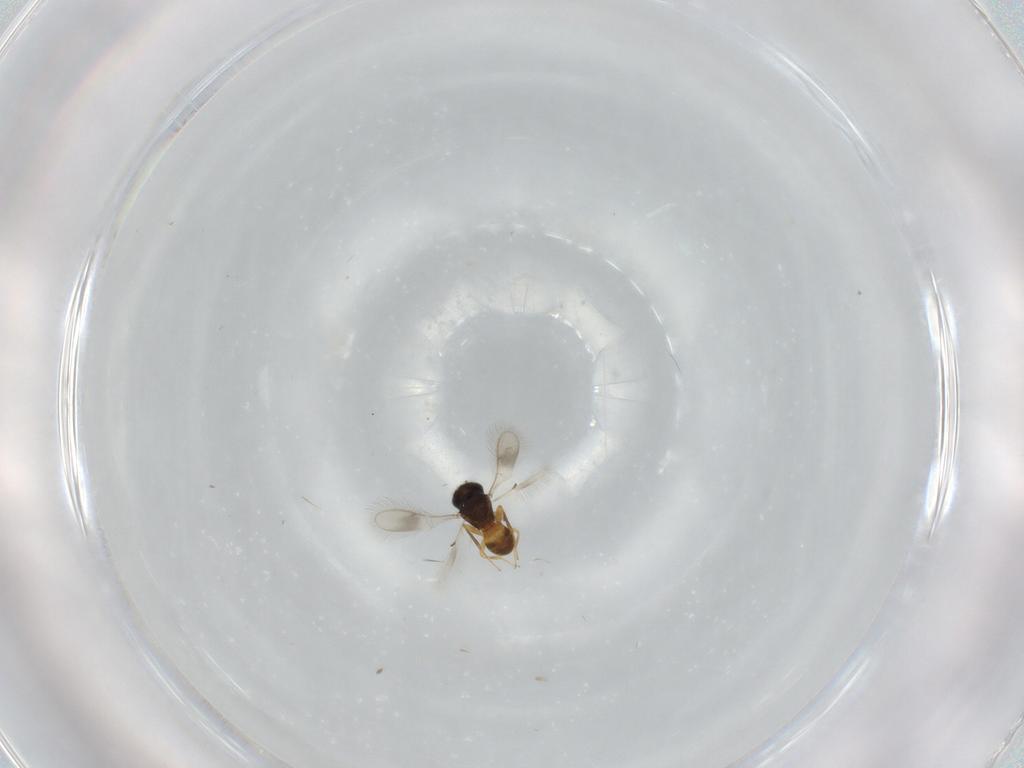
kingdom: Animalia
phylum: Arthropoda
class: Insecta
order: Hymenoptera
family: Scelionidae
